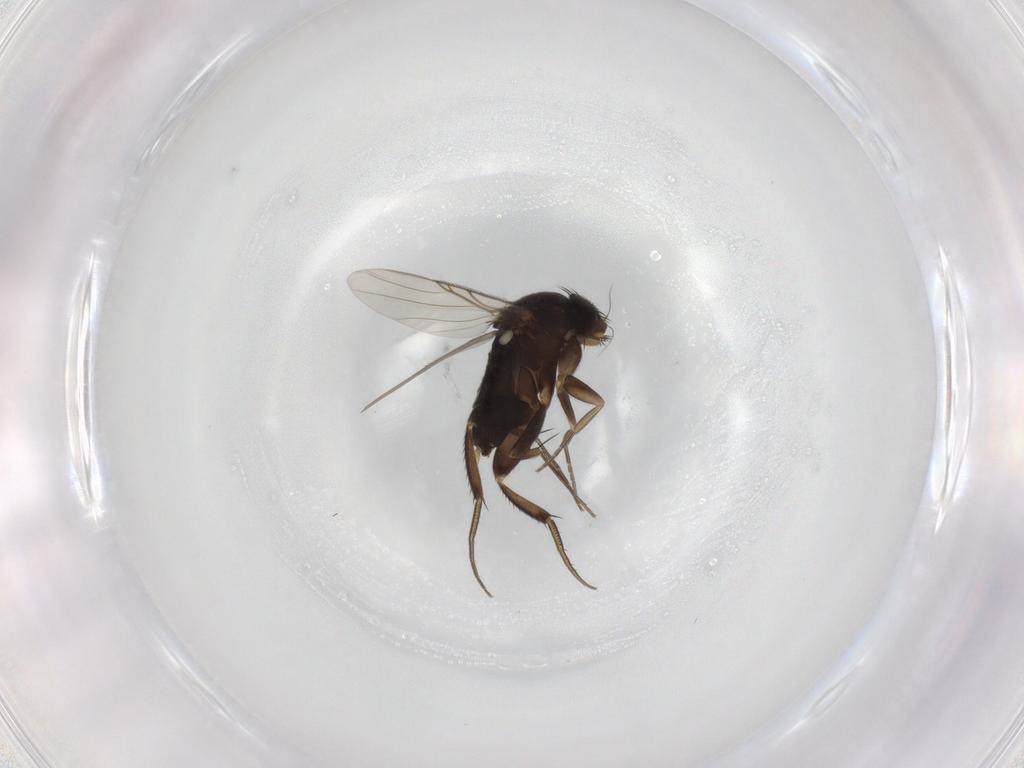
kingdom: Animalia
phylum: Arthropoda
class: Insecta
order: Diptera
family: Phoridae
